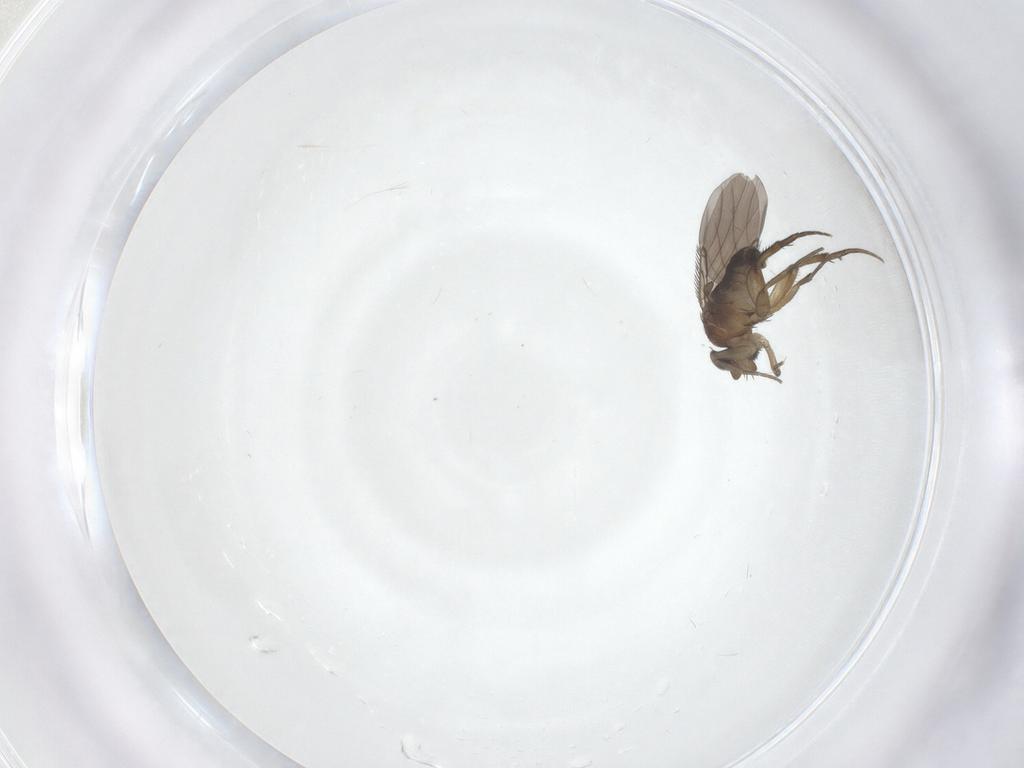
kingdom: Animalia
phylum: Arthropoda
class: Insecta
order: Diptera
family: Phoridae
